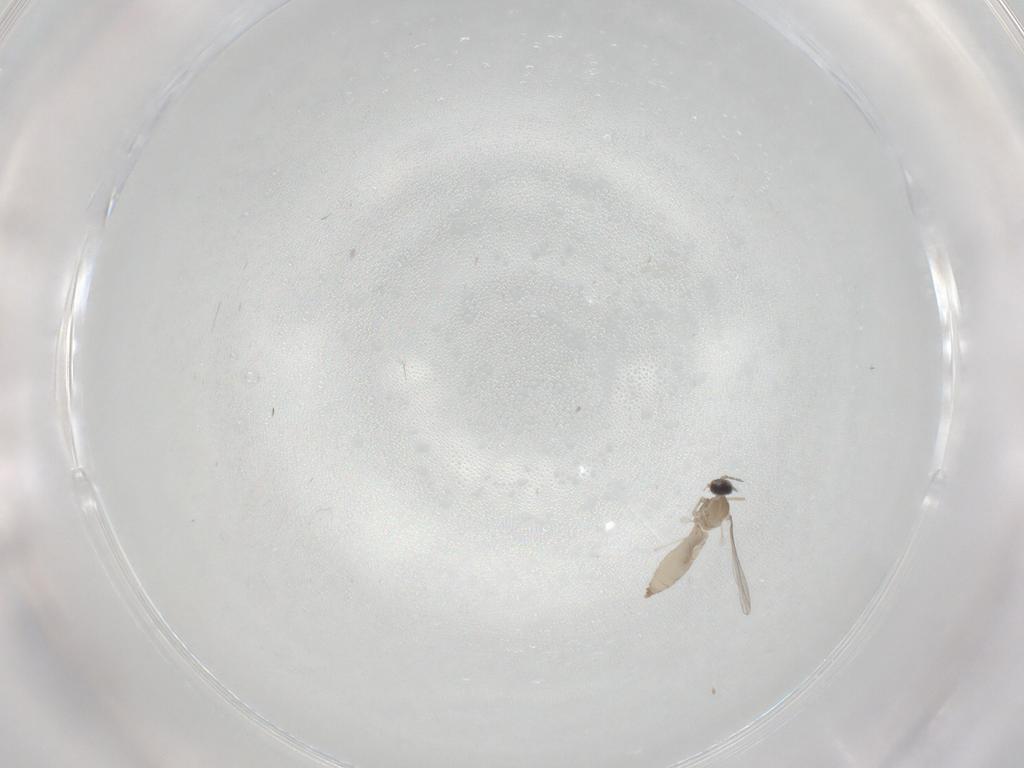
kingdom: Animalia
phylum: Arthropoda
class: Insecta
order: Diptera
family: Cecidomyiidae
